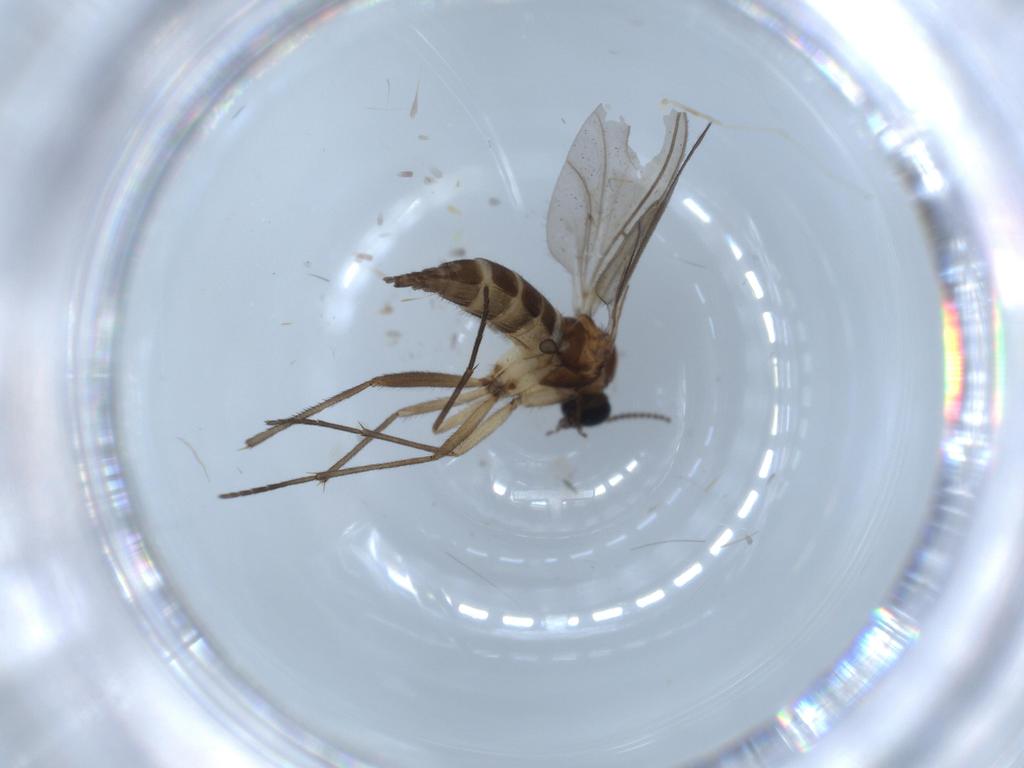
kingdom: Animalia
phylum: Arthropoda
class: Insecta
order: Diptera
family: Sciaridae
